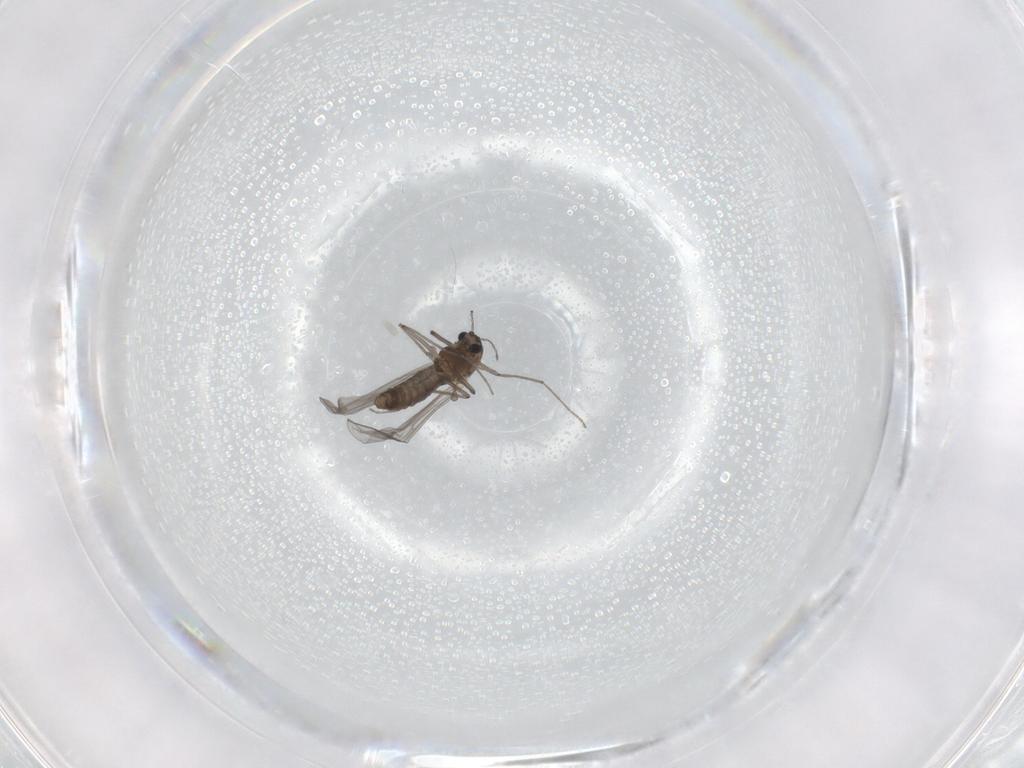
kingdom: Animalia
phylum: Arthropoda
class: Insecta
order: Diptera
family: Chironomidae
